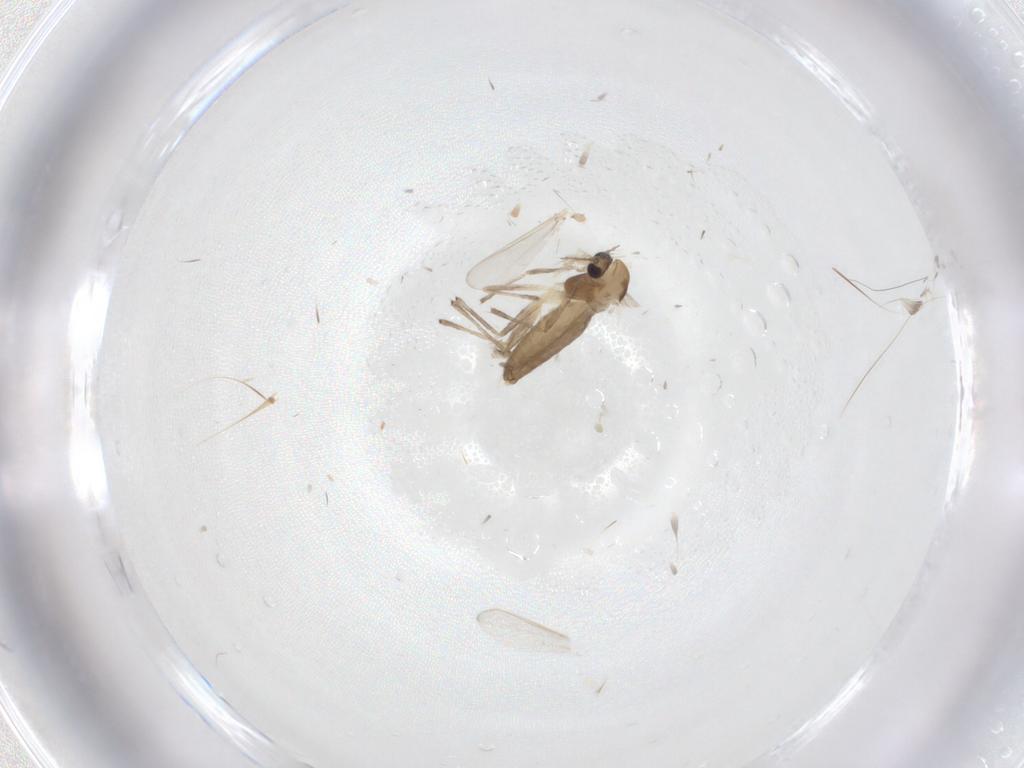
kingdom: Animalia
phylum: Arthropoda
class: Insecta
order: Diptera
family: Chironomidae
